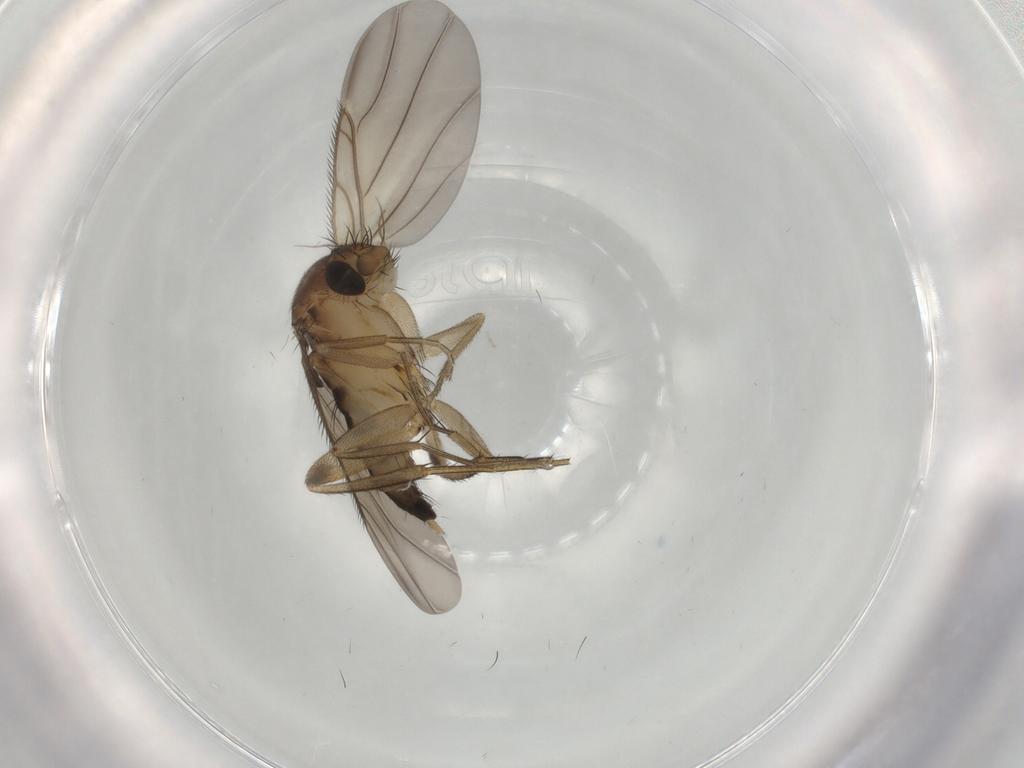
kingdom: Animalia
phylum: Arthropoda
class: Insecta
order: Diptera
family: Phoridae
